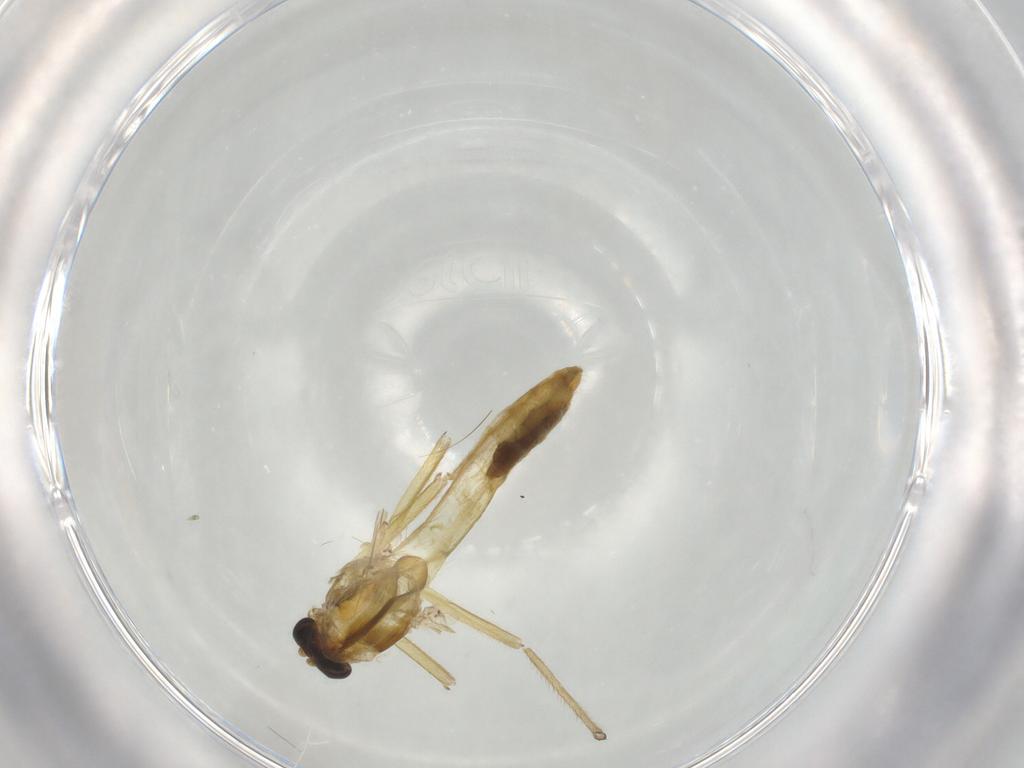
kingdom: Animalia
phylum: Arthropoda
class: Insecta
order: Diptera
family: Chironomidae
